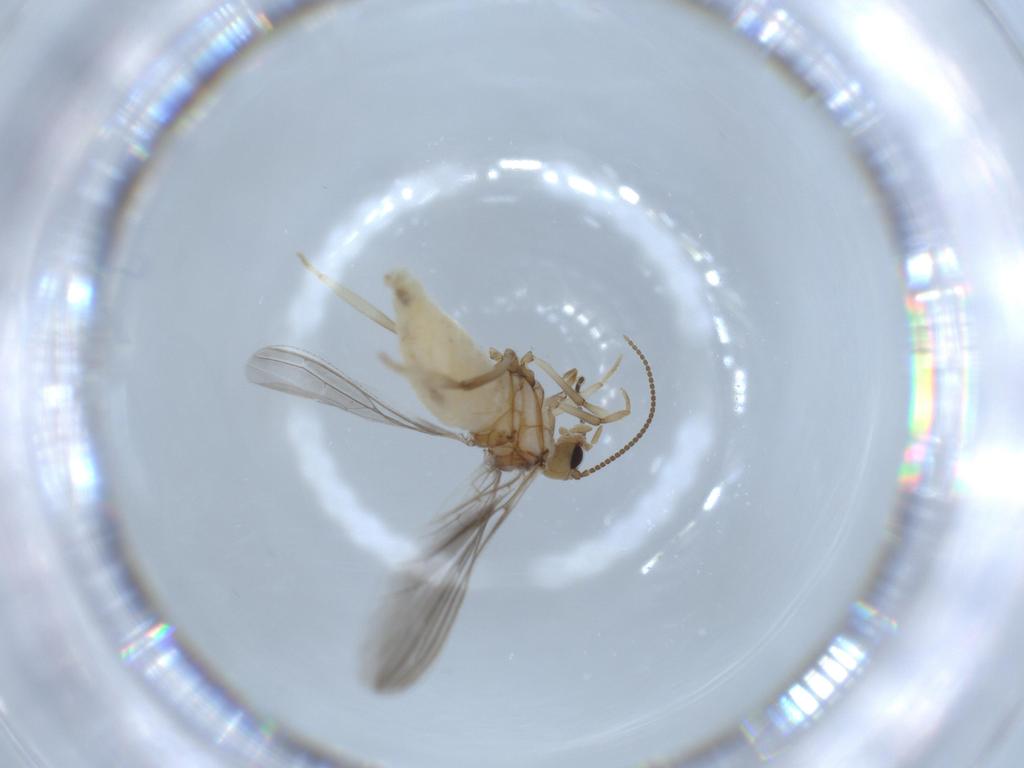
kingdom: Animalia
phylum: Arthropoda
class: Insecta
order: Neuroptera
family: Coniopterygidae
